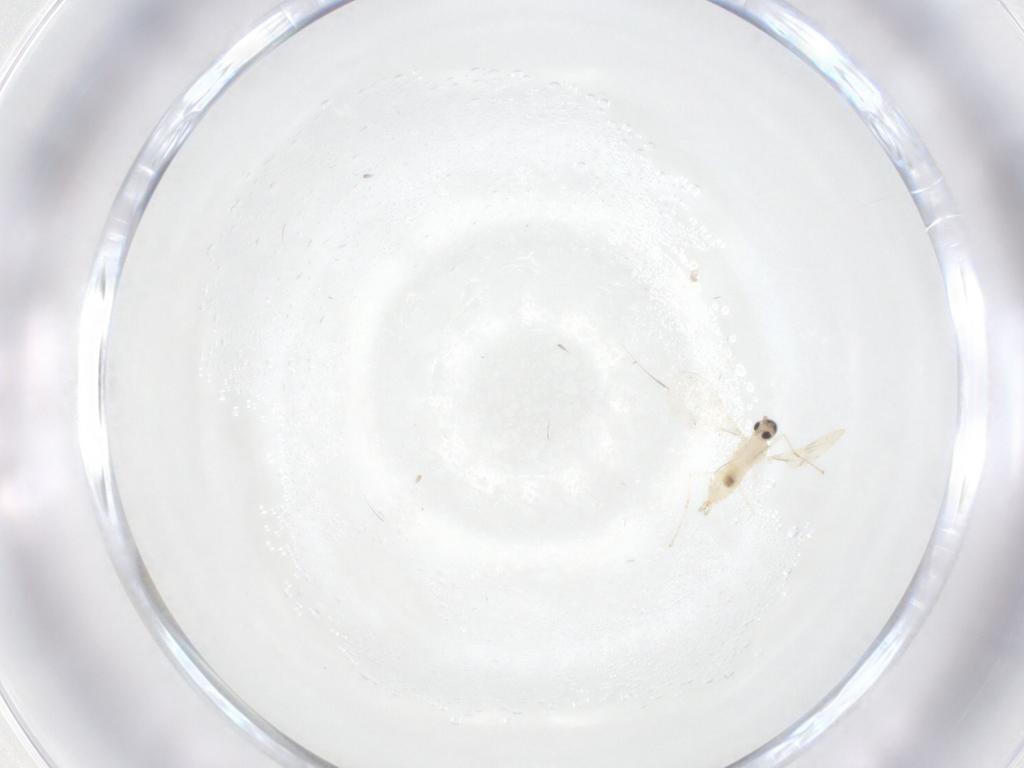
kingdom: Animalia
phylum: Arthropoda
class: Insecta
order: Diptera
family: Cecidomyiidae
